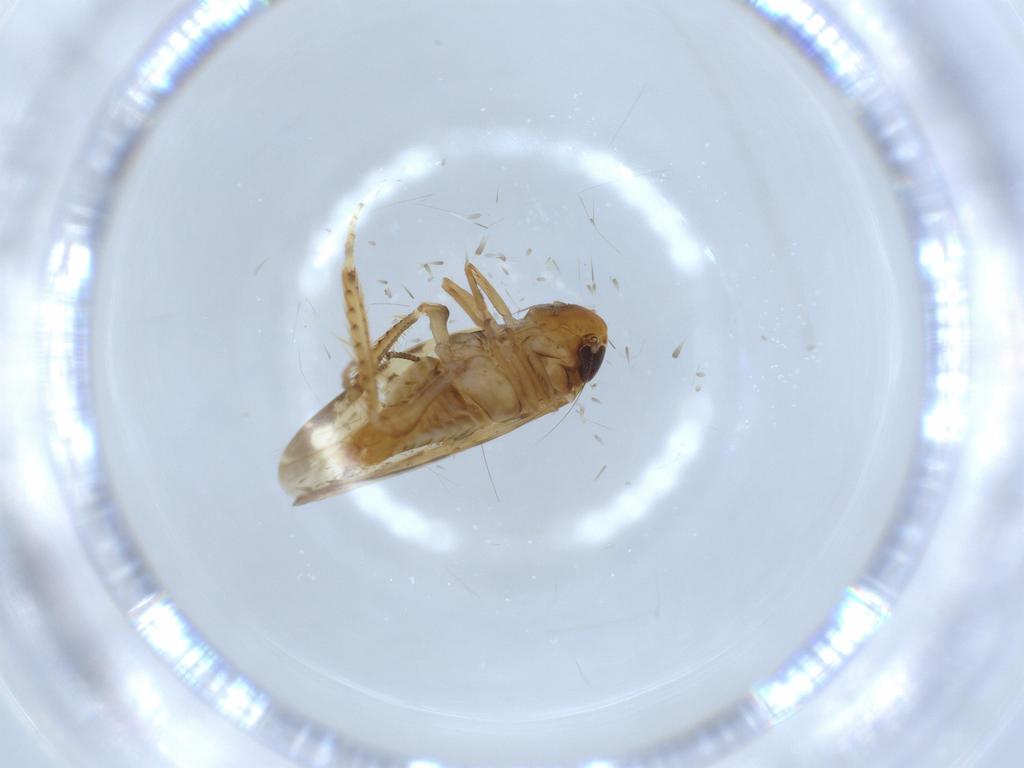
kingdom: Animalia
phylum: Arthropoda
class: Insecta
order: Hemiptera
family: Cicadellidae
